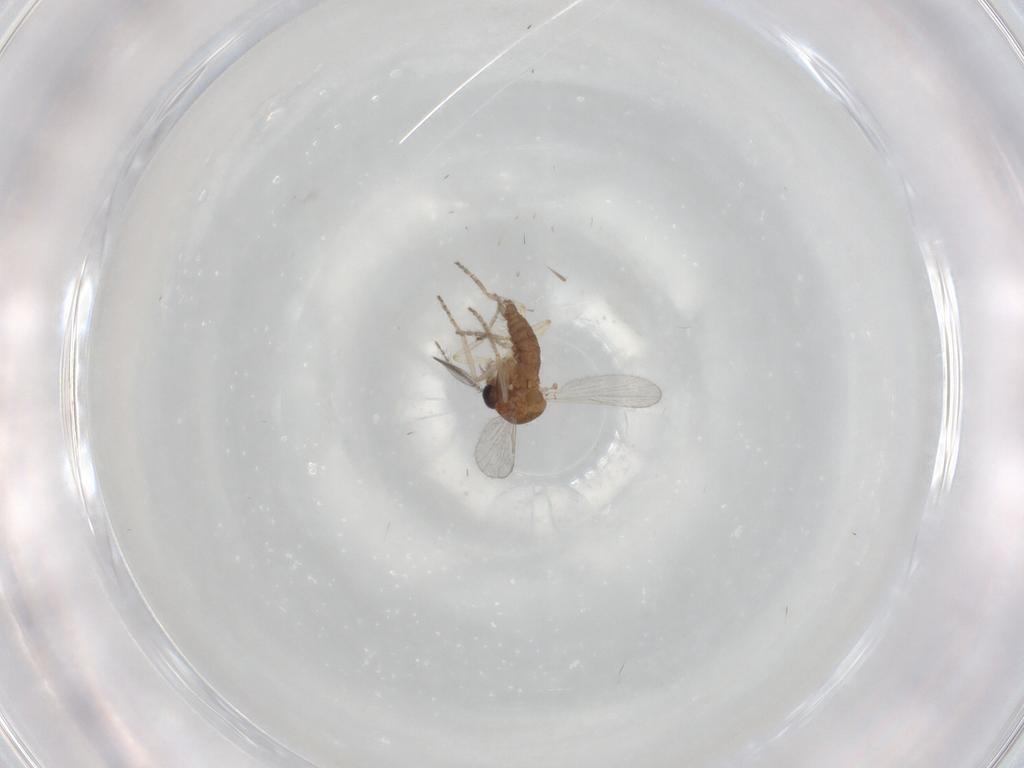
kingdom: Animalia
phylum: Arthropoda
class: Insecta
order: Diptera
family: Ceratopogonidae
